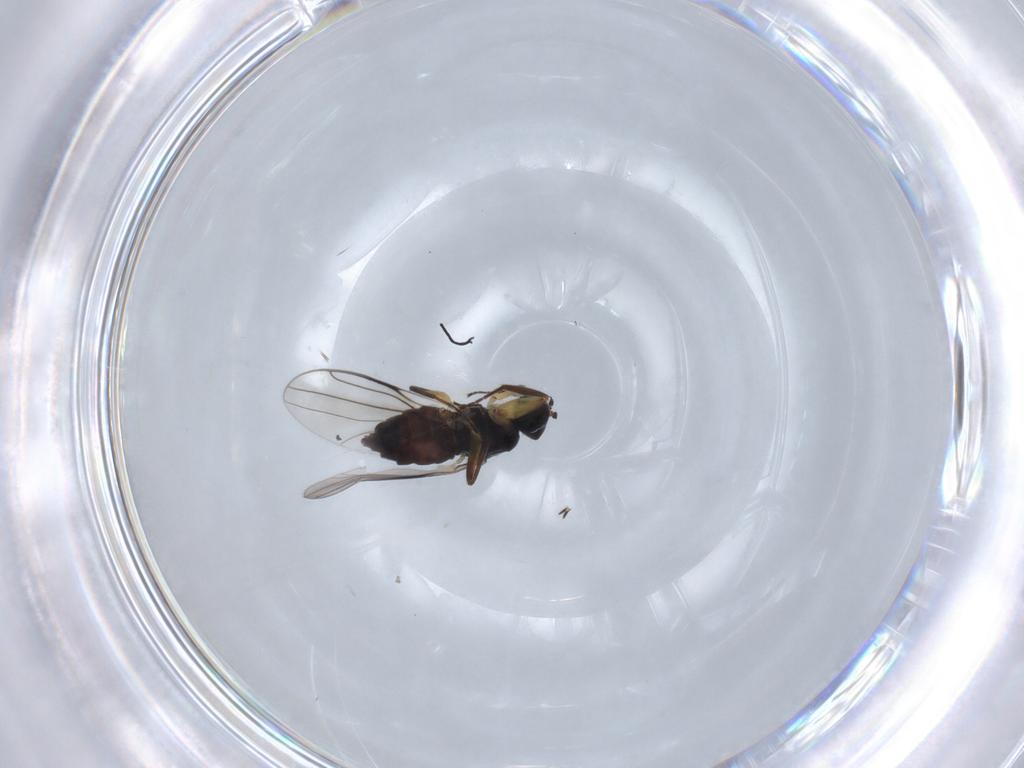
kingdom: Animalia
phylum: Arthropoda
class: Insecta
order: Diptera
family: Hybotidae
